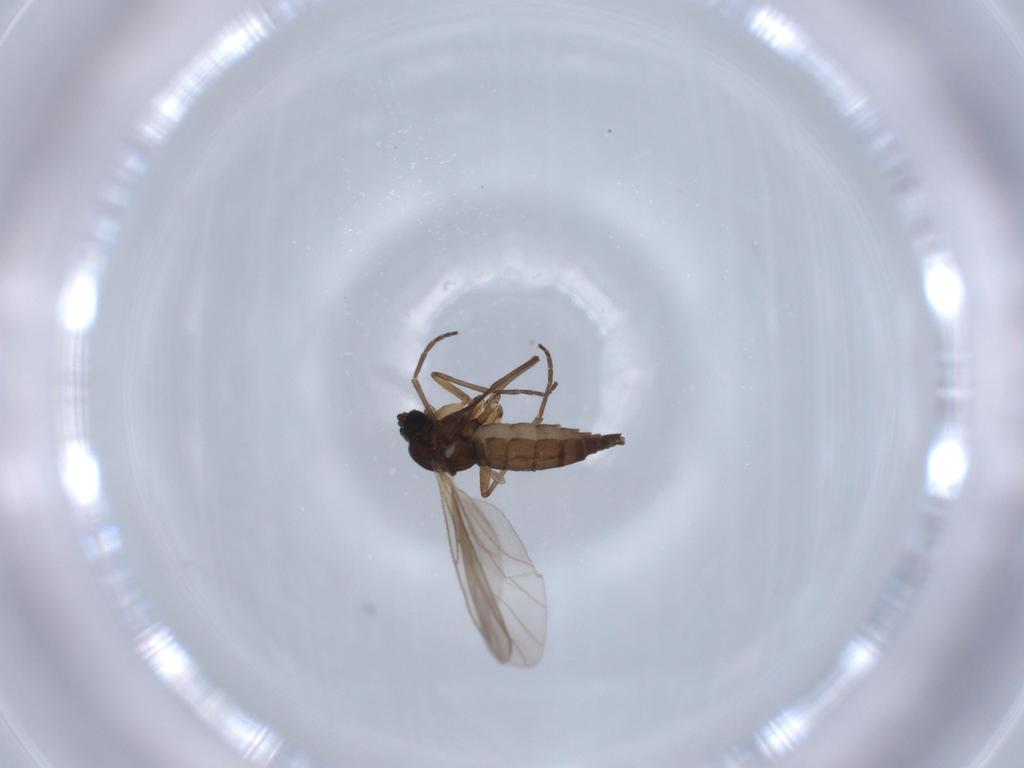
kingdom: Animalia
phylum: Arthropoda
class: Insecta
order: Diptera
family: Sciaridae
